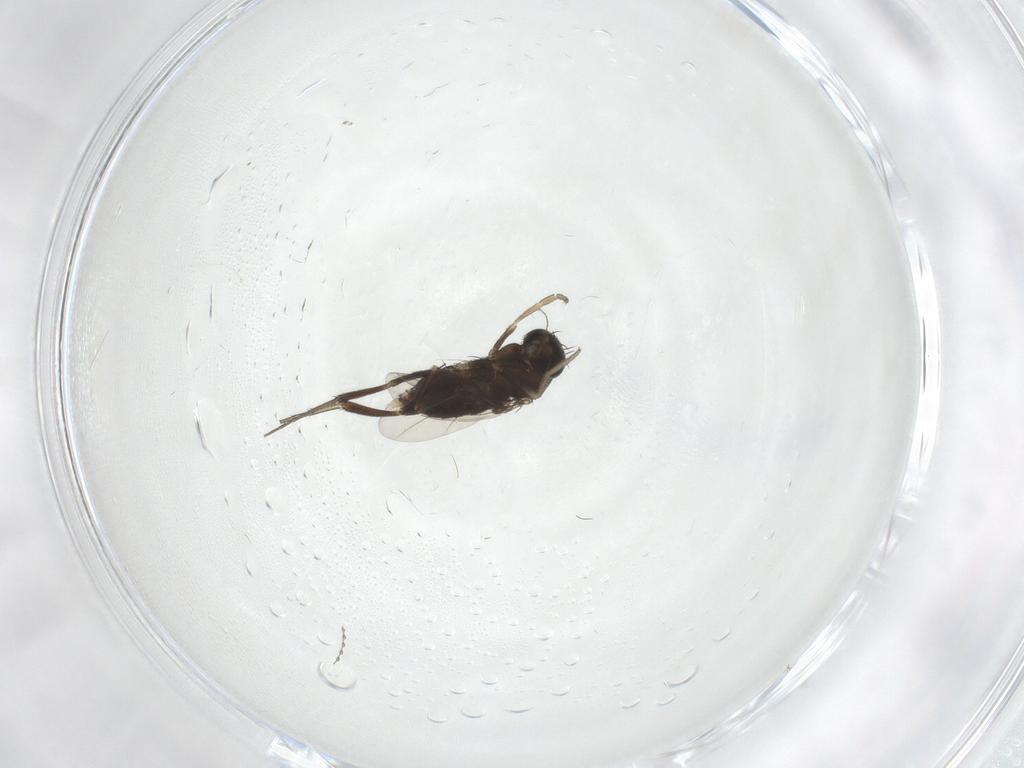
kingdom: Animalia
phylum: Arthropoda
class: Insecta
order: Diptera
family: Phoridae
